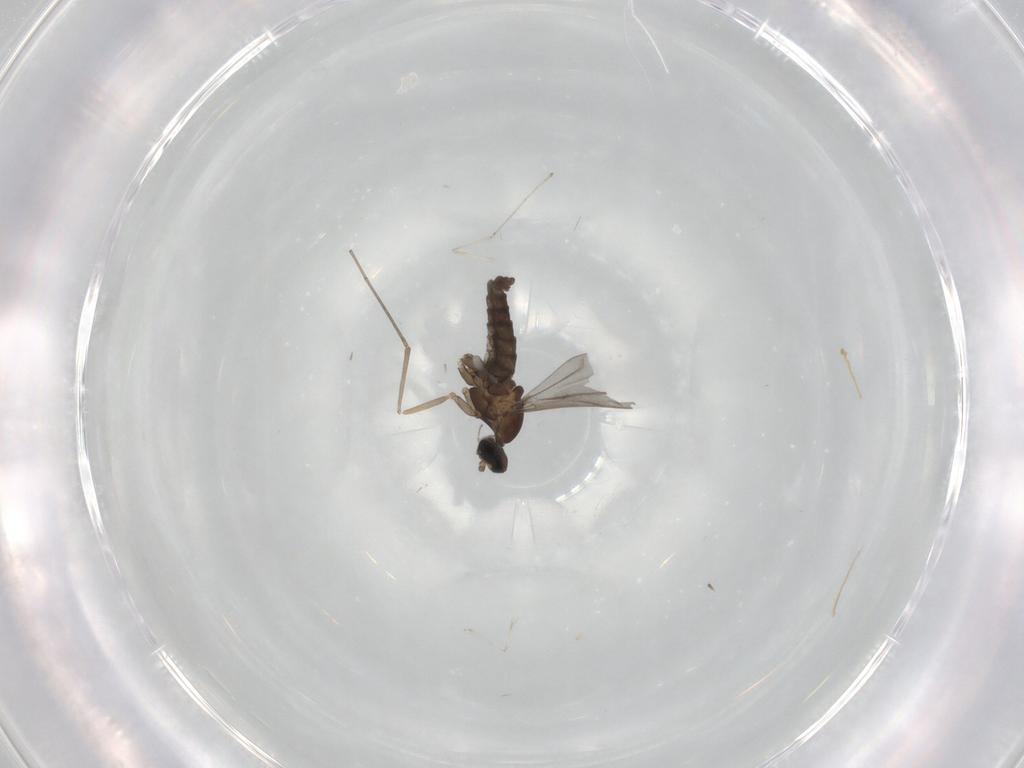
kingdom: Animalia
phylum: Arthropoda
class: Insecta
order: Diptera
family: Cecidomyiidae
